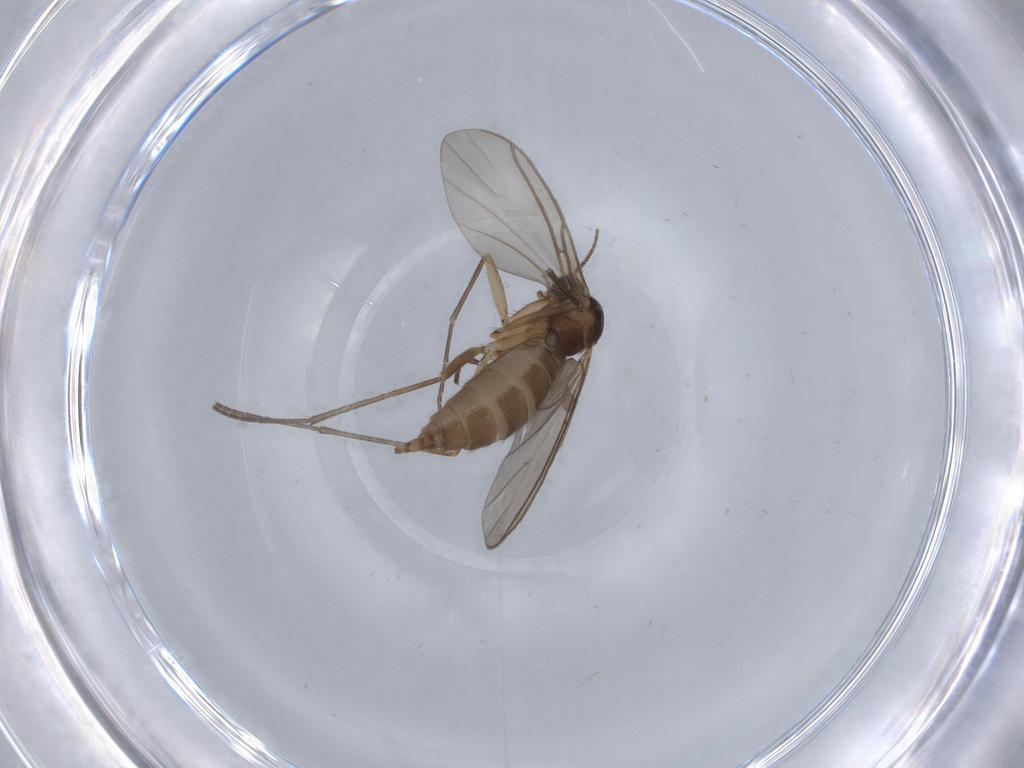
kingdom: Animalia
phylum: Arthropoda
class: Insecta
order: Diptera
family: Sciaridae
